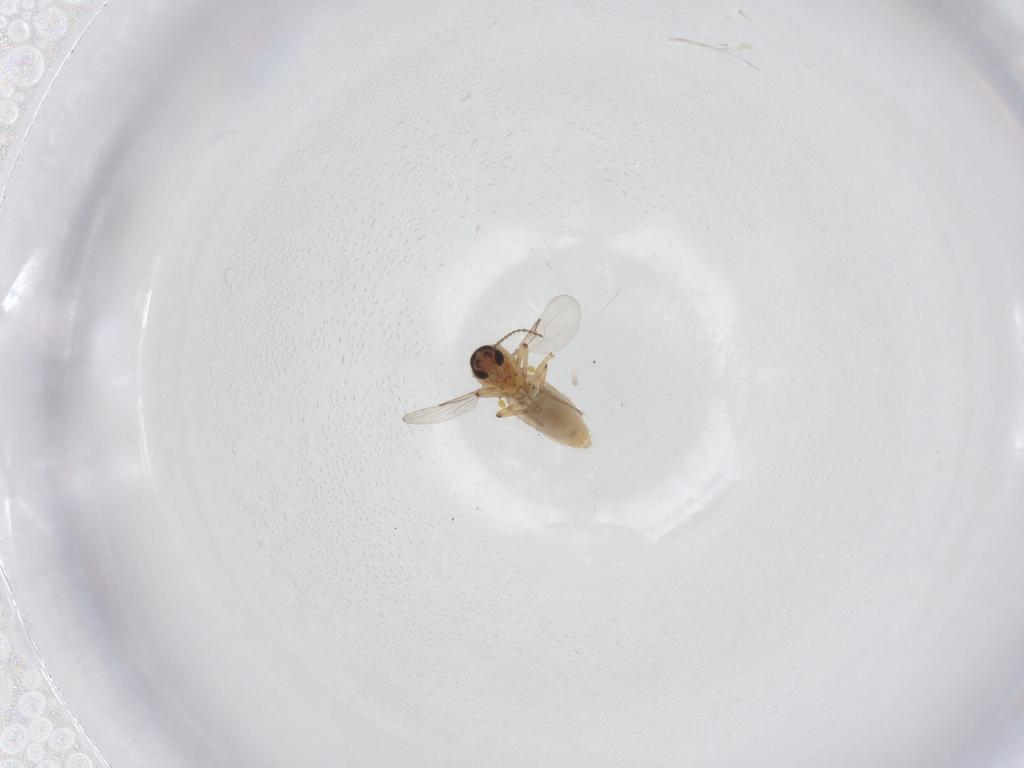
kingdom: Animalia
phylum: Arthropoda
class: Insecta
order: Diptera
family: Ceratopogonidae
